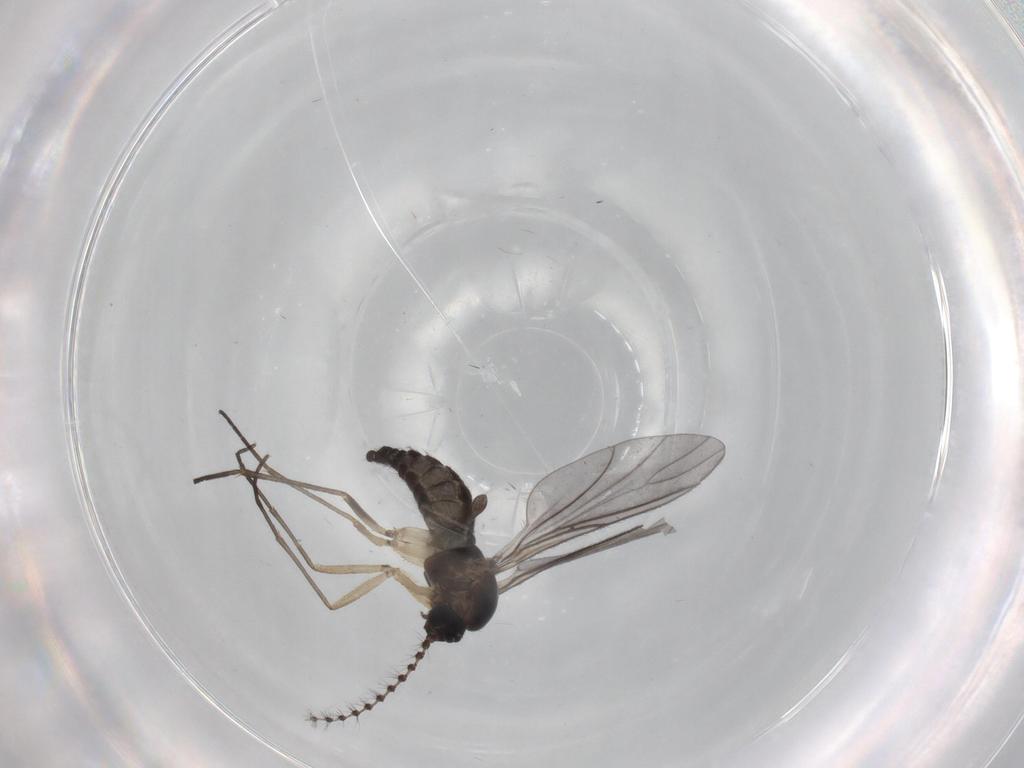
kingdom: Animalia
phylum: Arthropoda
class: Insecta
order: Diptera
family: Sciaridae
